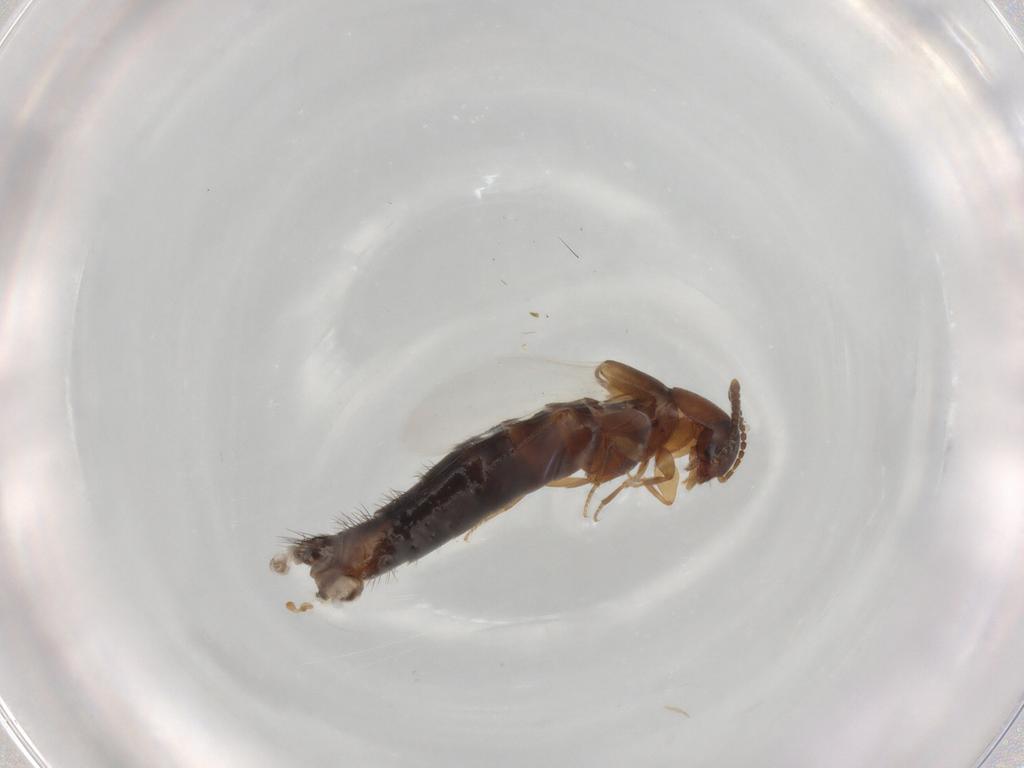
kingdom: Animalia
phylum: Arthropoda
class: Insecta
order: Coleoptera
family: Staphylinidae
